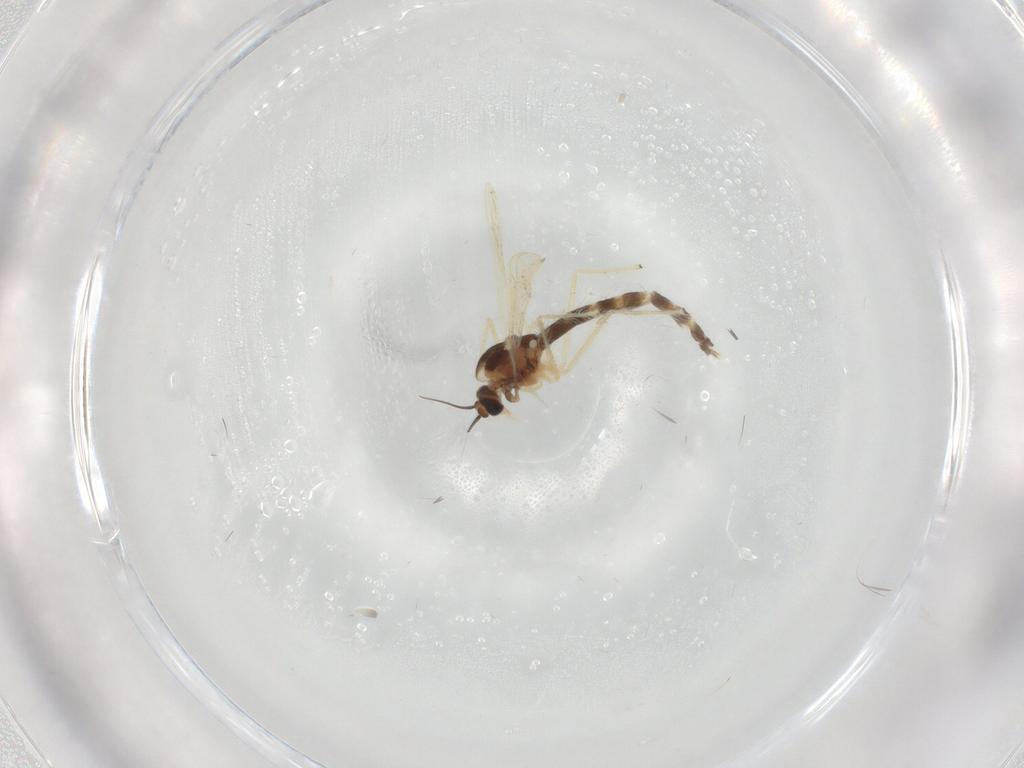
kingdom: Animalia
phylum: Arthropoda
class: Insecta
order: Diptera
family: Chironomidae
